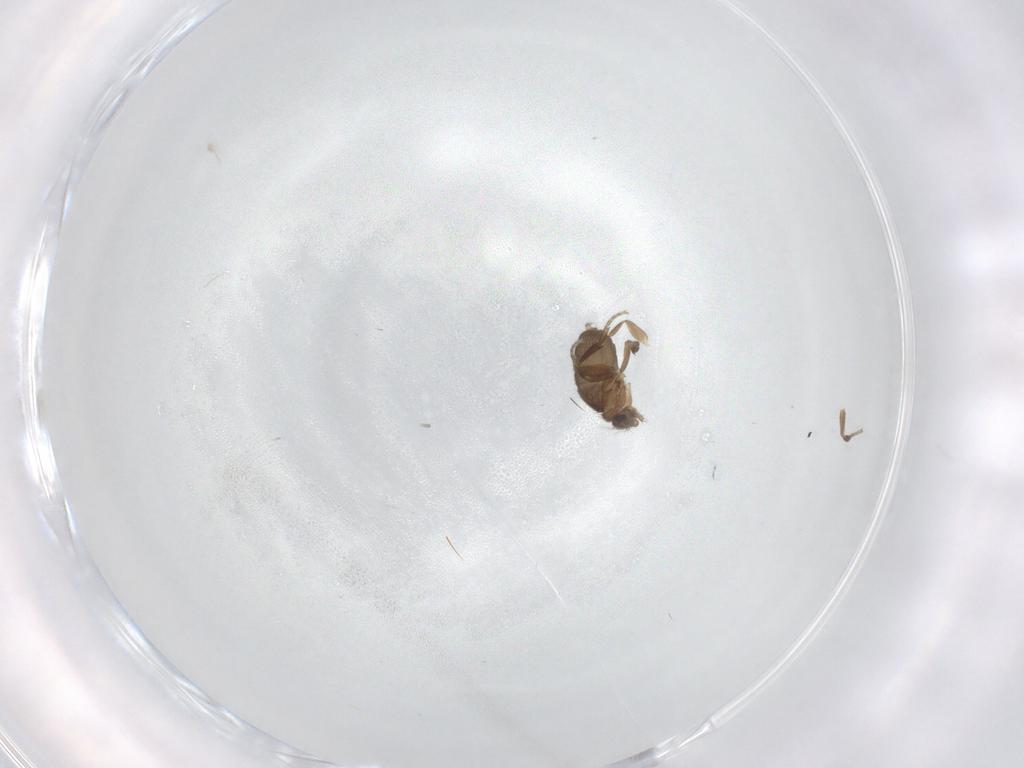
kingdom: Animalia
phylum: Arthropoda
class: Insecta
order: Diptera
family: Phoridae
